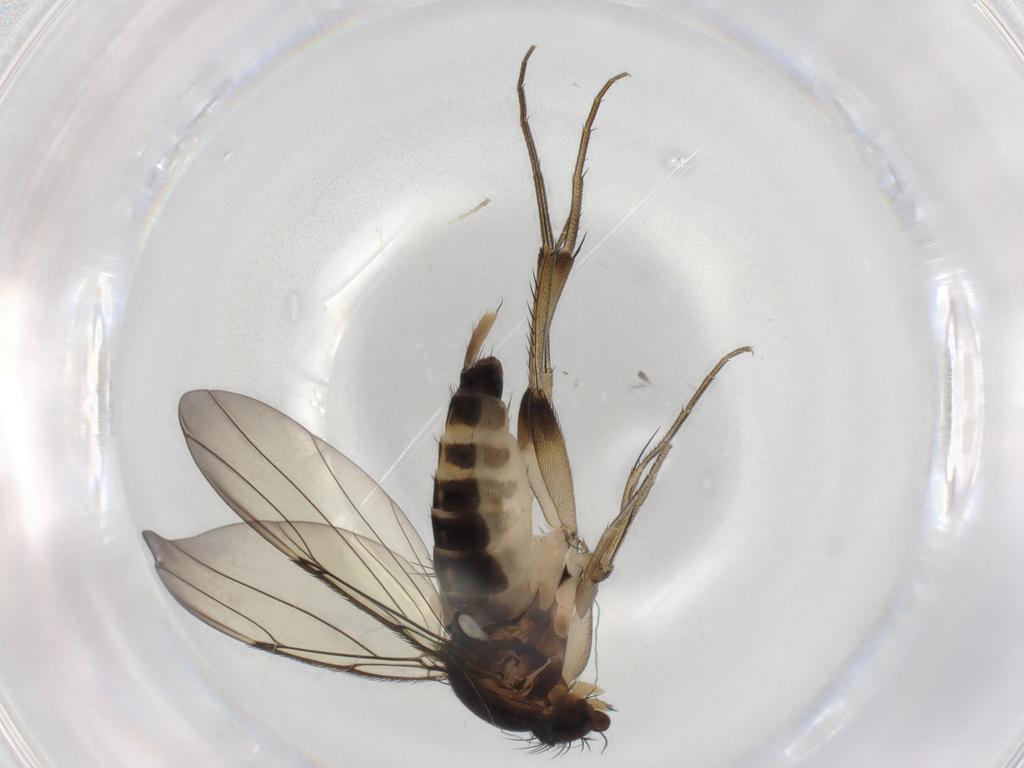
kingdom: Animalia
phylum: Arthropoda
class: Insecta
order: Diptera
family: Phoridae
